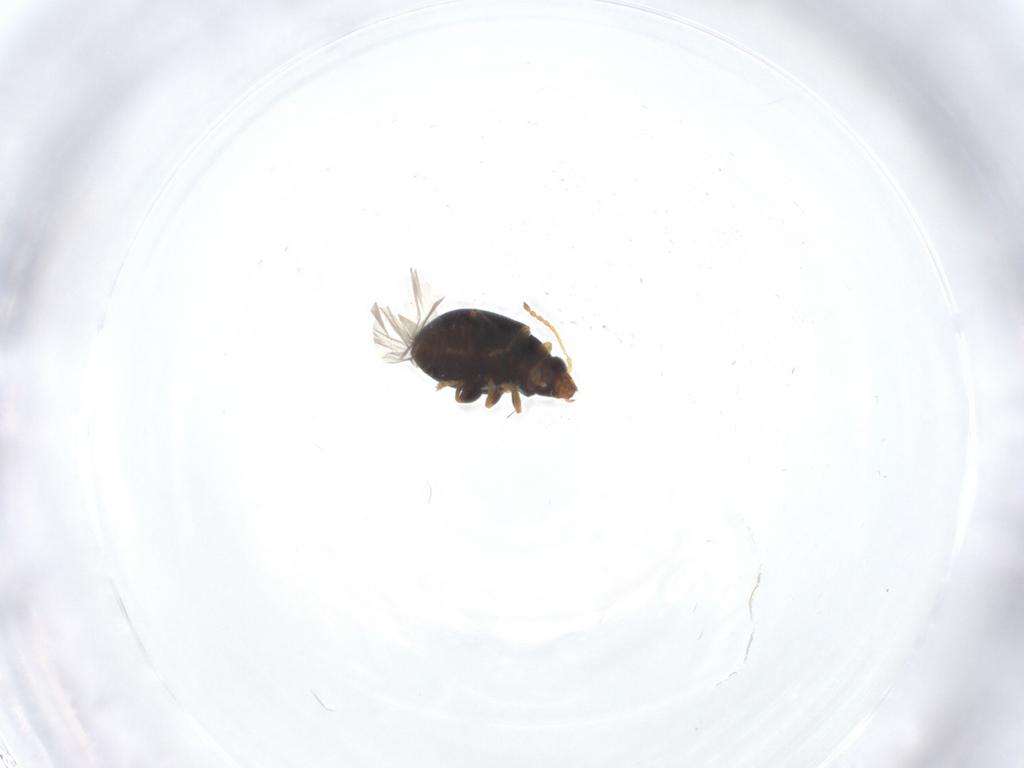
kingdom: Animalia
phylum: Arthropoda
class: Insecta
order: Coleoptera
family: Chrysomelidae
